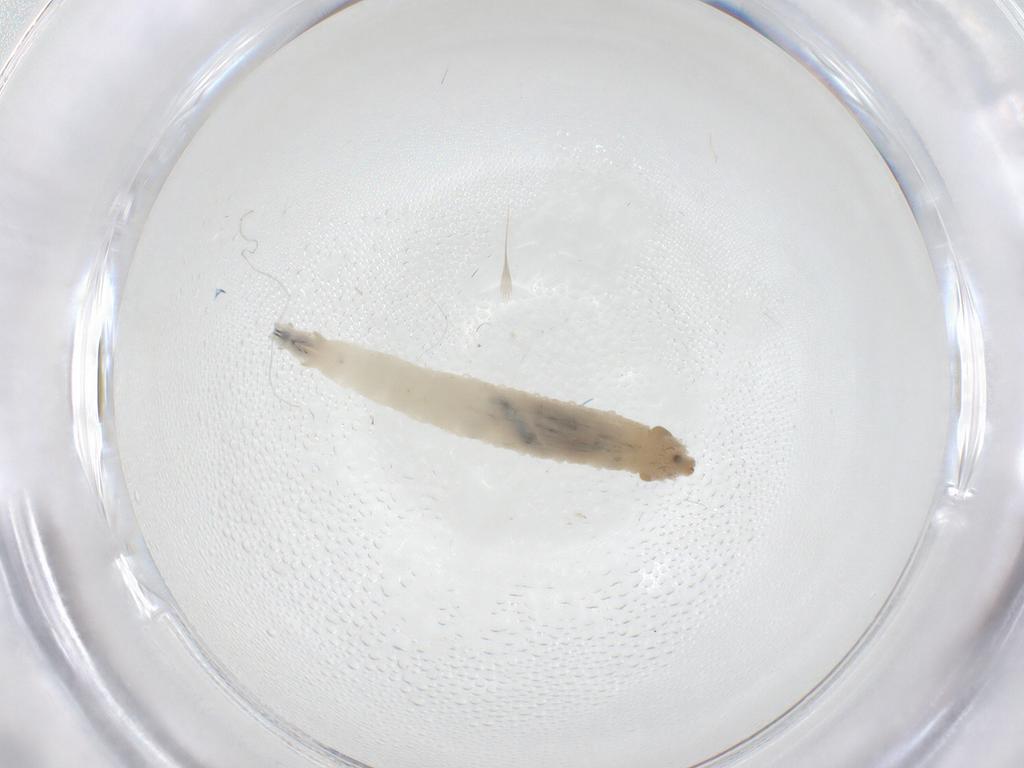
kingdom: Animalia
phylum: Arthropoda
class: Insecta
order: Diptera
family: Drosophilidae
